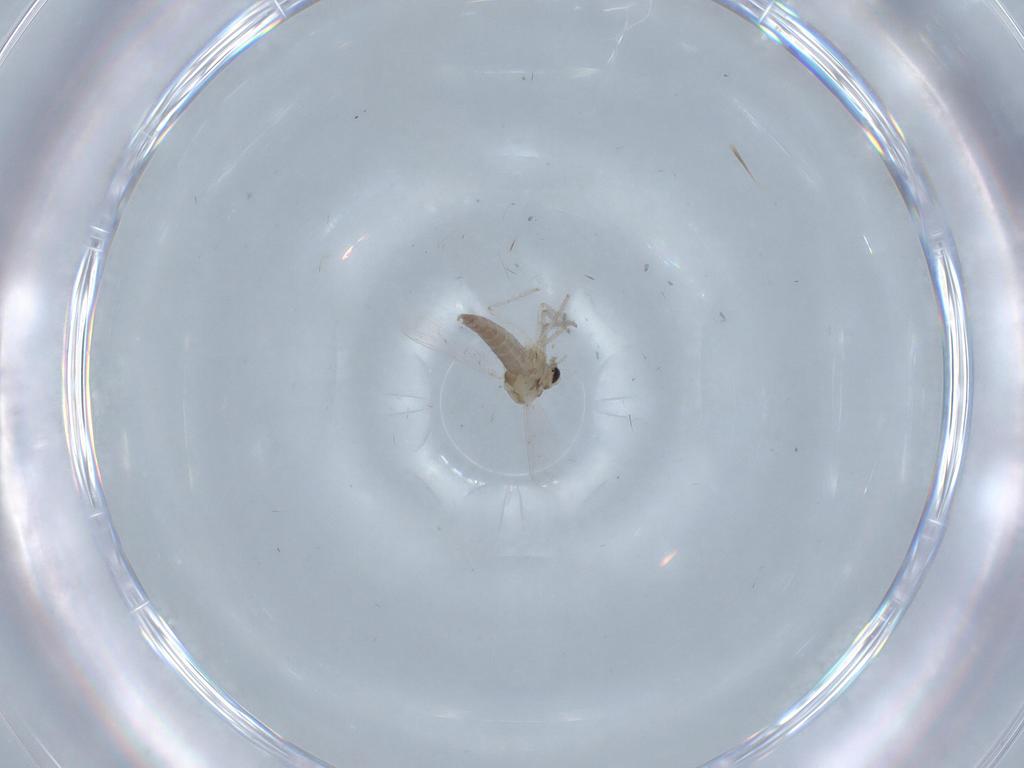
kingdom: Animalia
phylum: Arthropoda
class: Insecta
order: Diptera
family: Chironomidae
